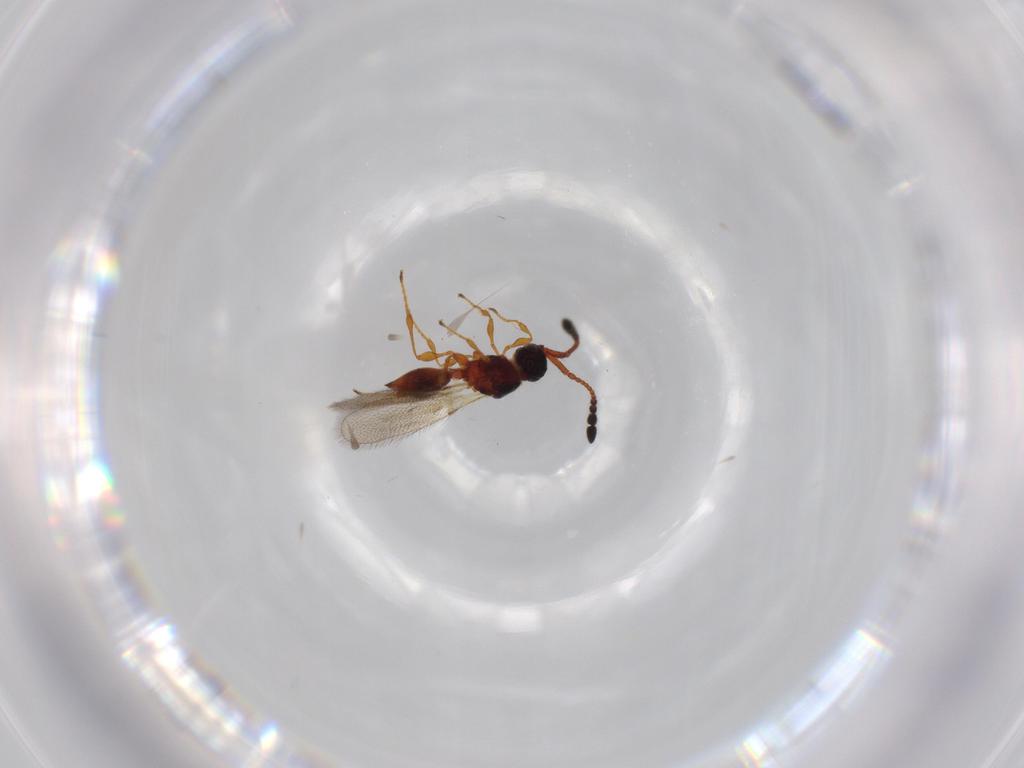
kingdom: Animalia
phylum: Arthropoda
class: Insecta
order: Hymenoptera
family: Diapriidae
